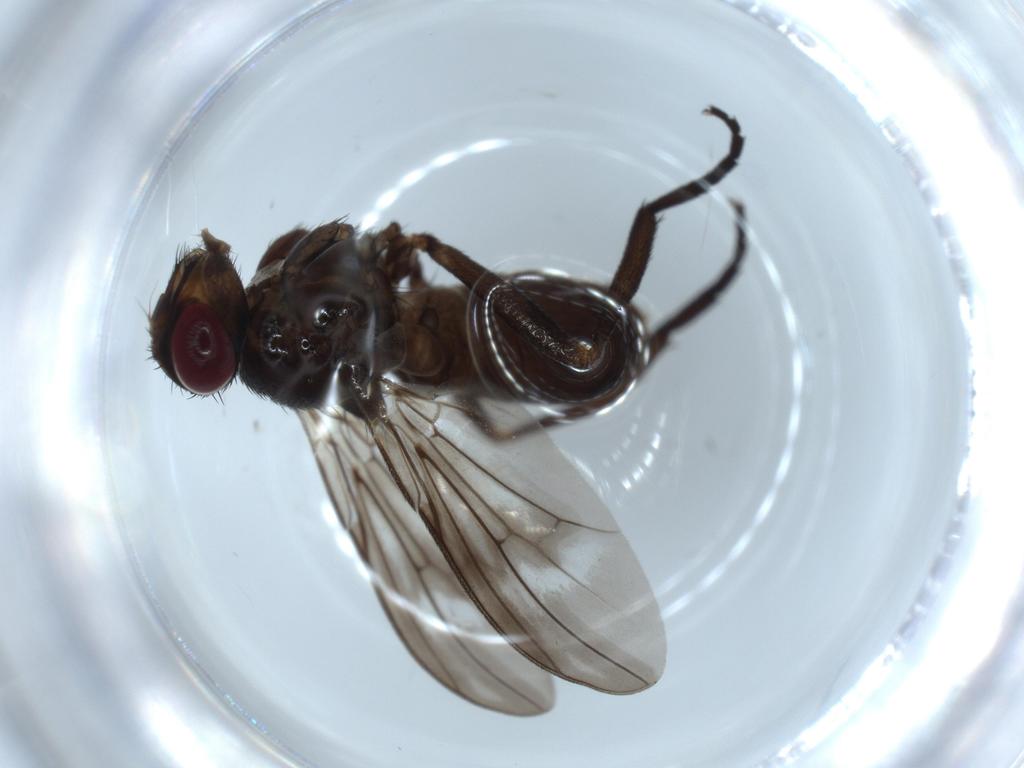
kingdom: Animalia
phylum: Arthropoda
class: Insecta
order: Diptera
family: Calliphoridae
